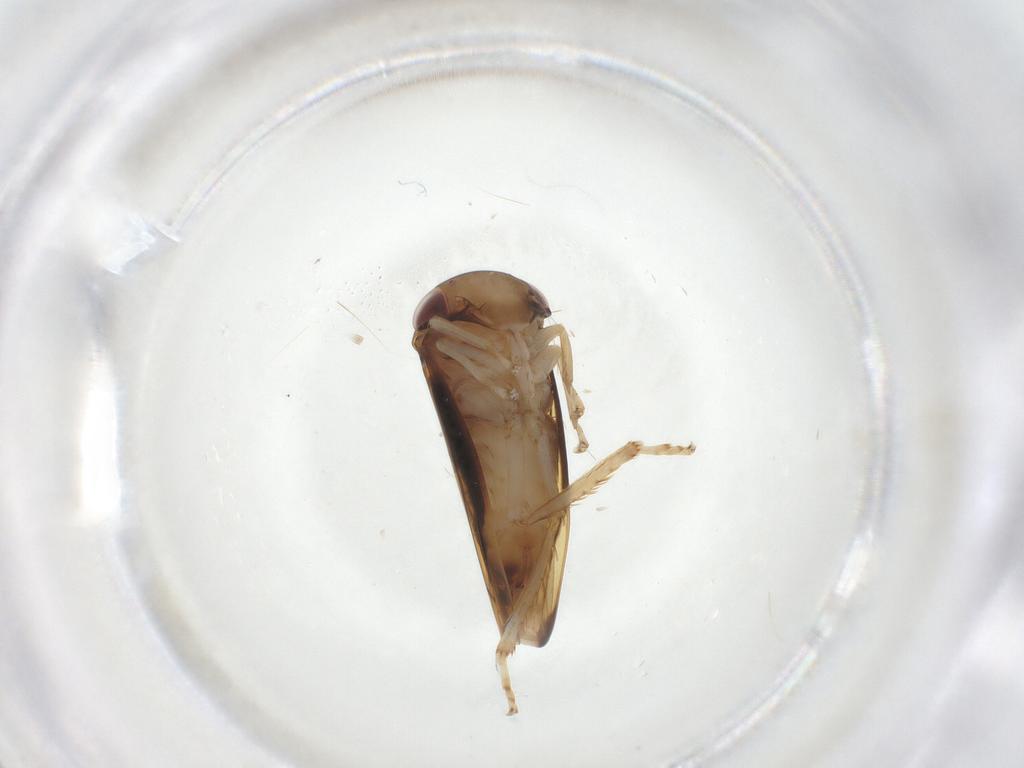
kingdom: Animalia
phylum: Arthropoda
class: Insecta
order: Hemiptera
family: Cicadellidae
